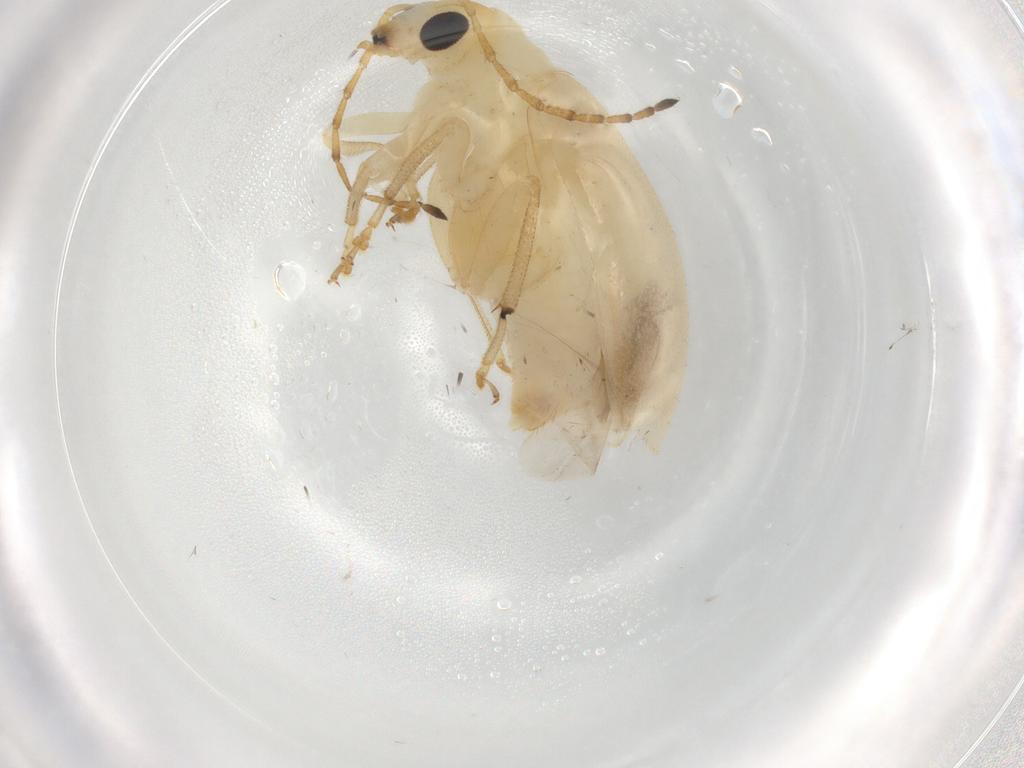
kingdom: Animalia
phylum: Arthropoda
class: Insecta
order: Coleoptera
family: Chrysomelidae
